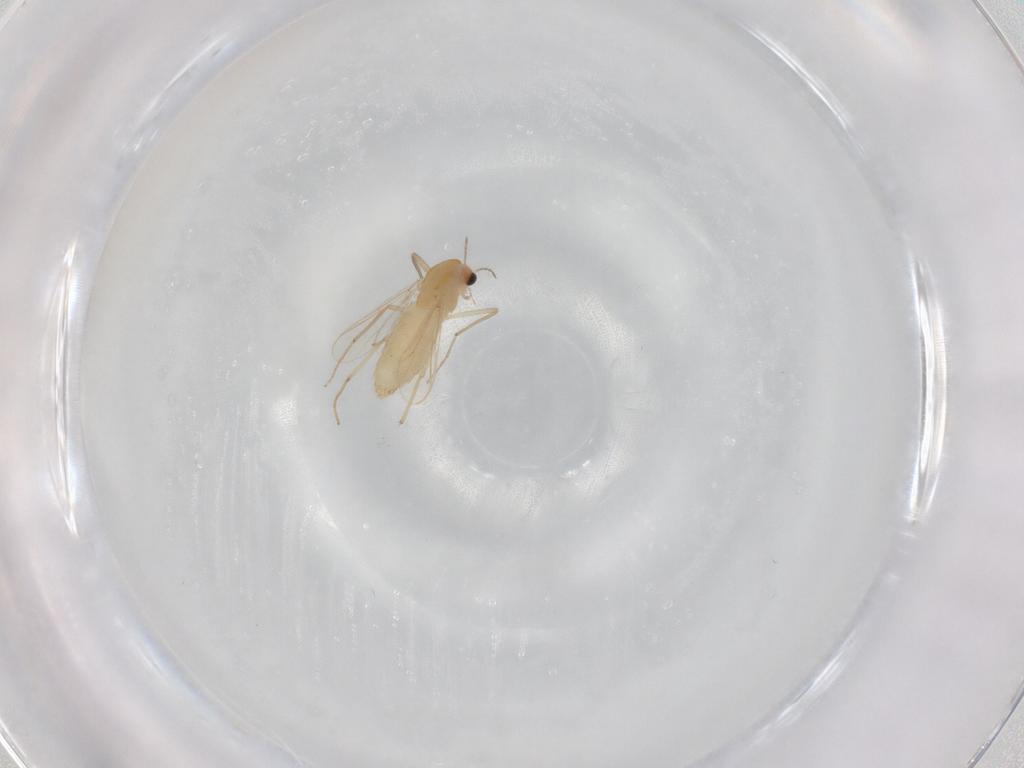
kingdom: Animalia
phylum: Arthropoda
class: Insecta
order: Diptera
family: Chironomidae
